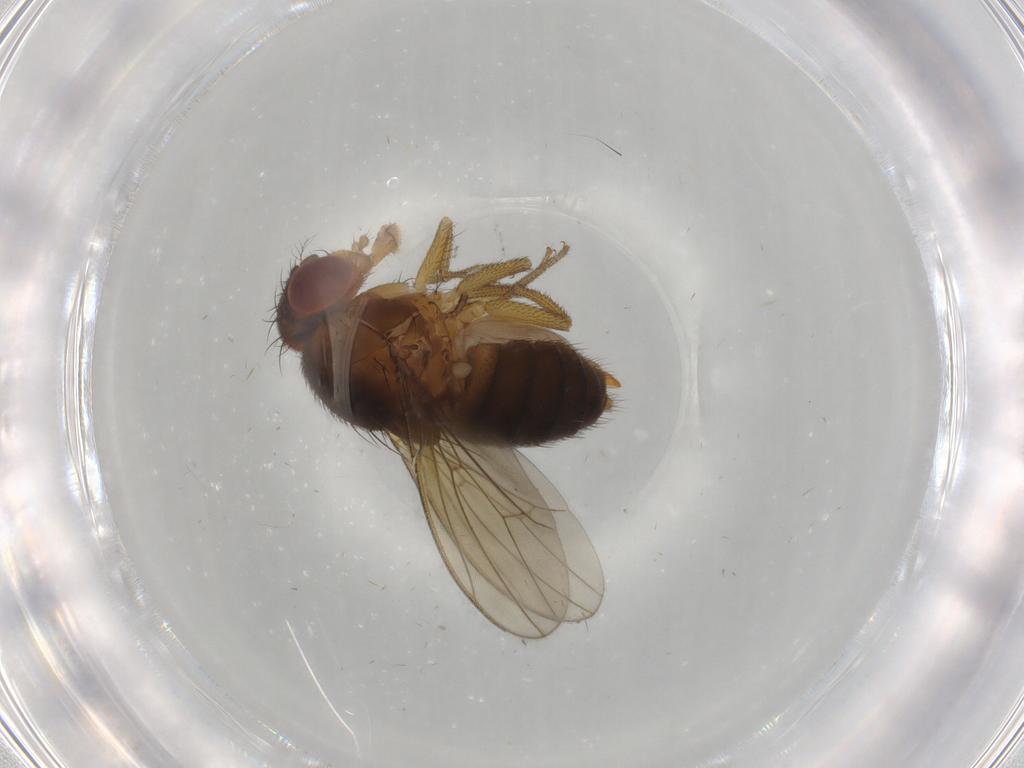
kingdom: Animalia
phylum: Arthropoda
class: Insecta
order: Diptera
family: Drosophilidae
